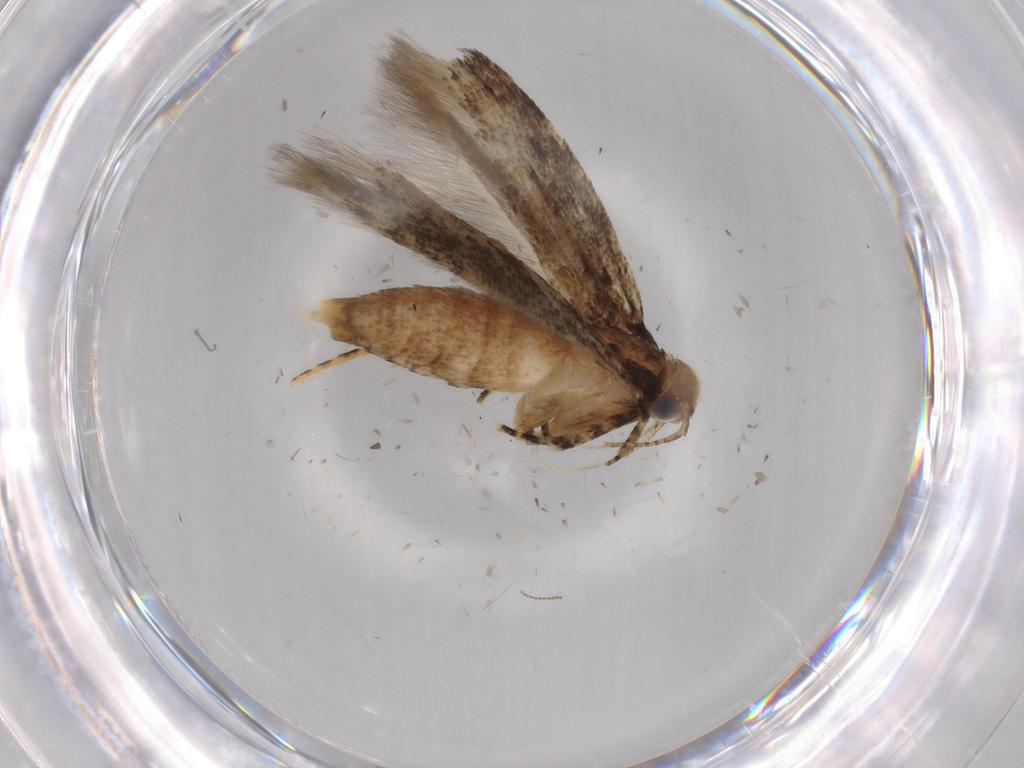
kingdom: Animalia
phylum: Arthropoda
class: Insecta
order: Lepidoptera
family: Gelechiidae
